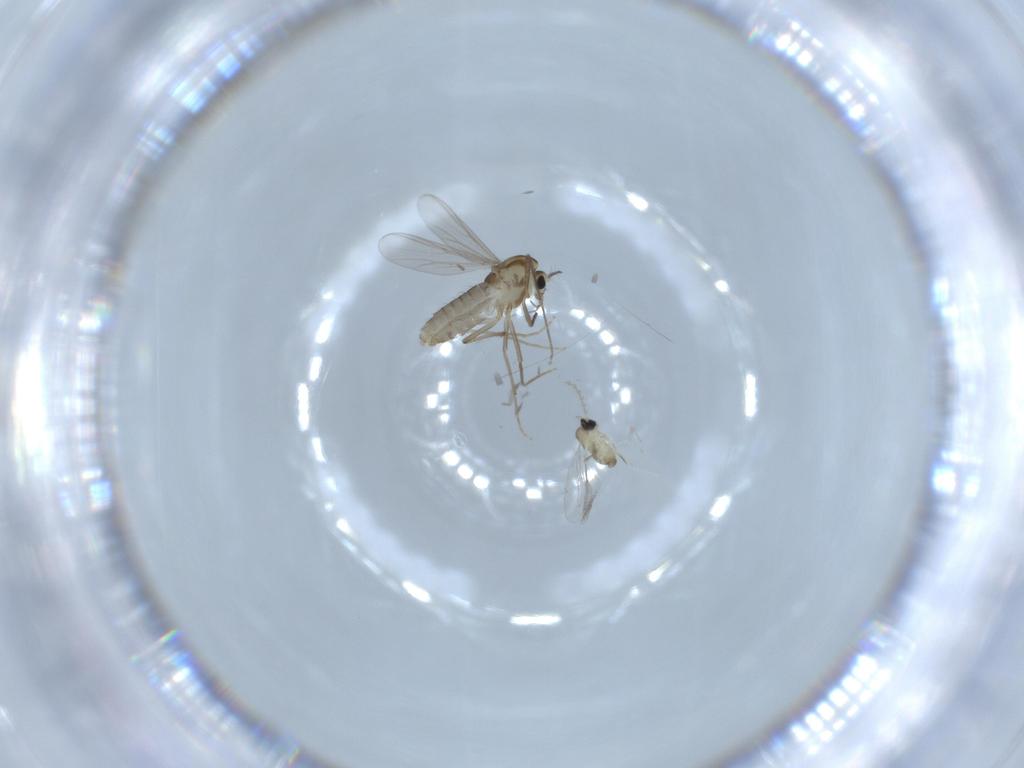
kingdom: Animalia
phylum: Arthropoda
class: Insecta
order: Diptera
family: Cecidomyiidae
